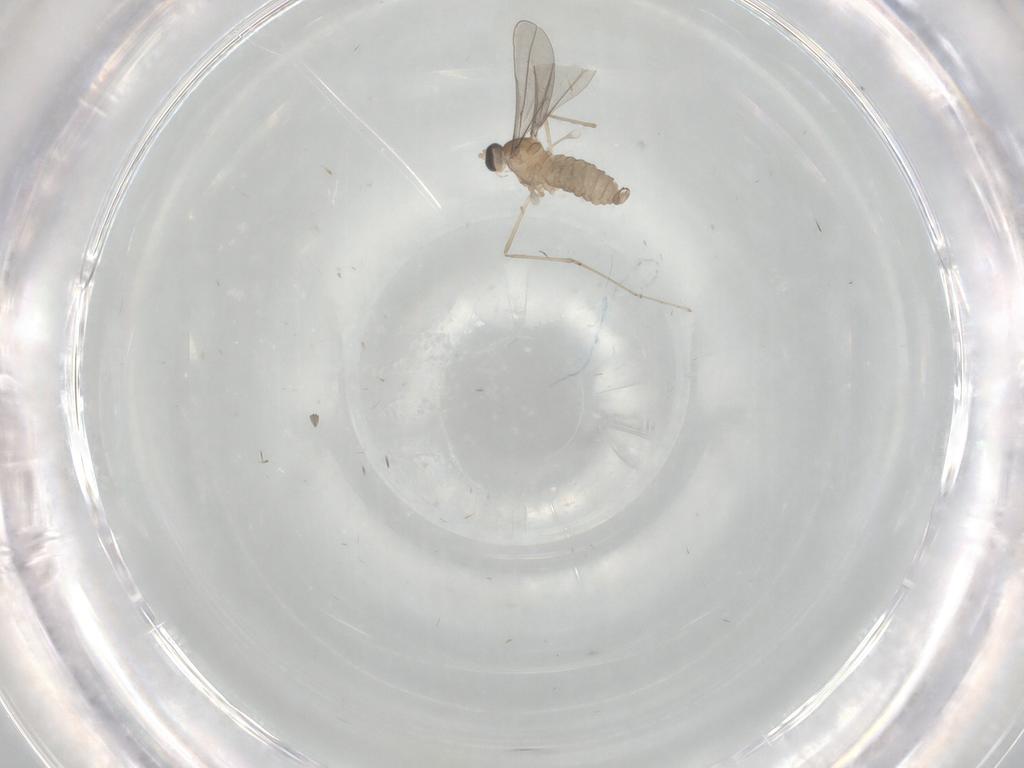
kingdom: Animalia
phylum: Arthropoda
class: Insecta
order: Diptera
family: Cecidomyiidae
